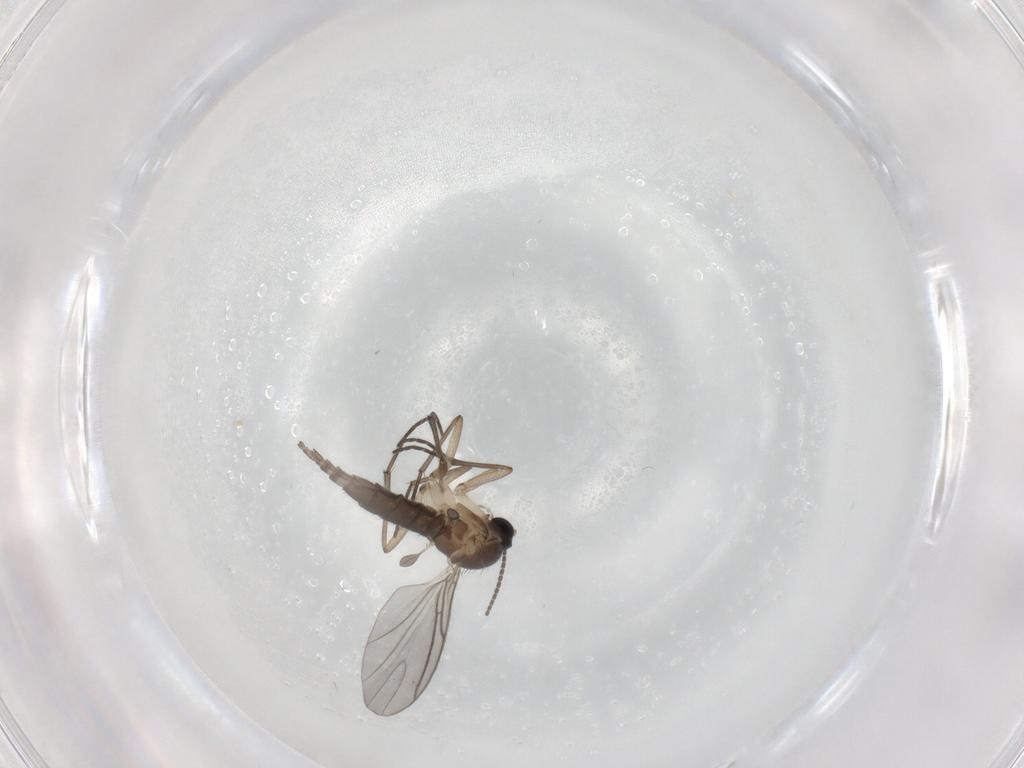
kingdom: Animalia
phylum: Arthropoda
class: Insecta
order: Diptera
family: Sciaridae
